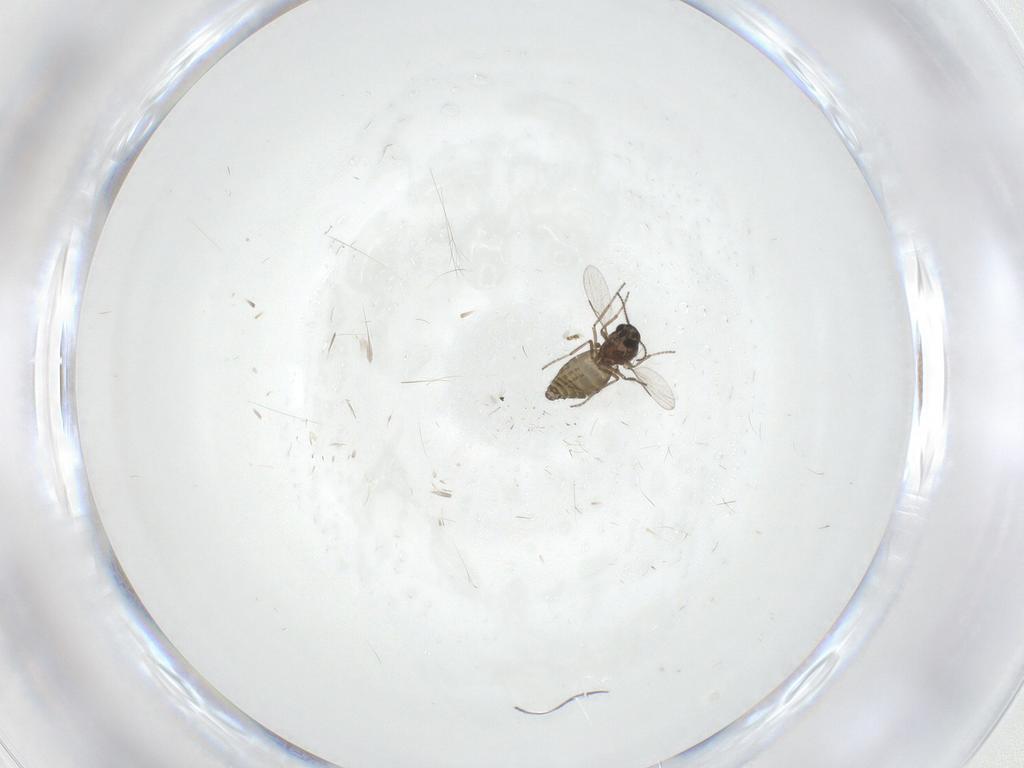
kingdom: Animalia
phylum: Arthropoda
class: Insecta
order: Diptera
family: Ceratopogonidae
